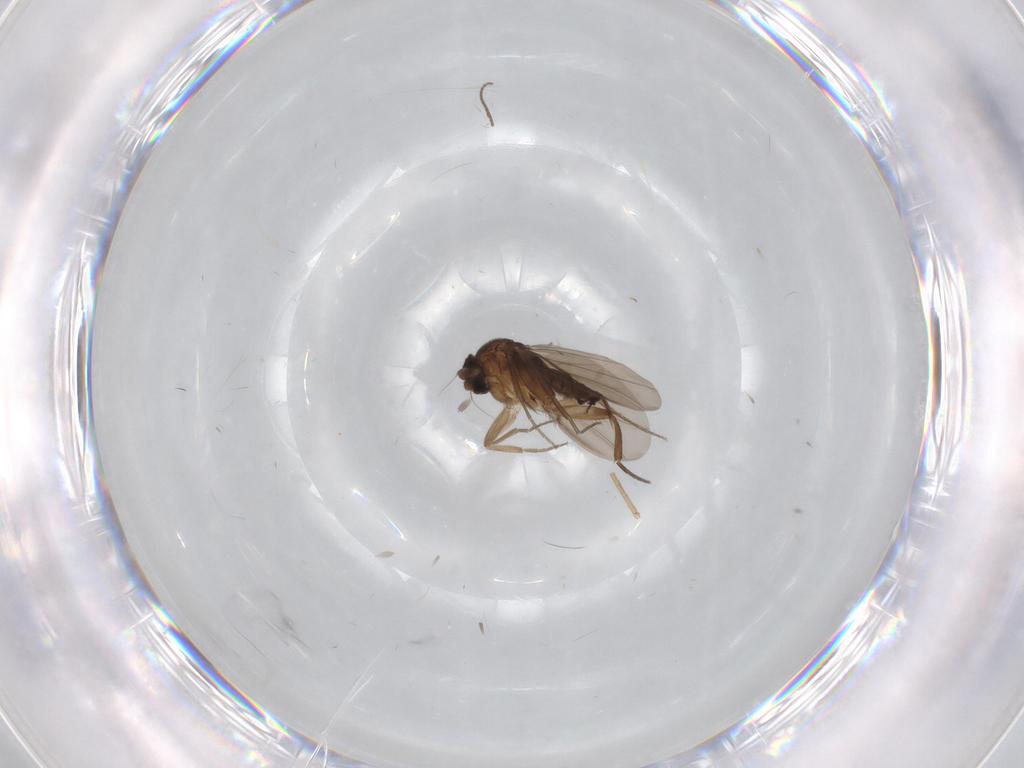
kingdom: Animalia
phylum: Arthropoda
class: Insecta
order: Diptera
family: Phoridae
